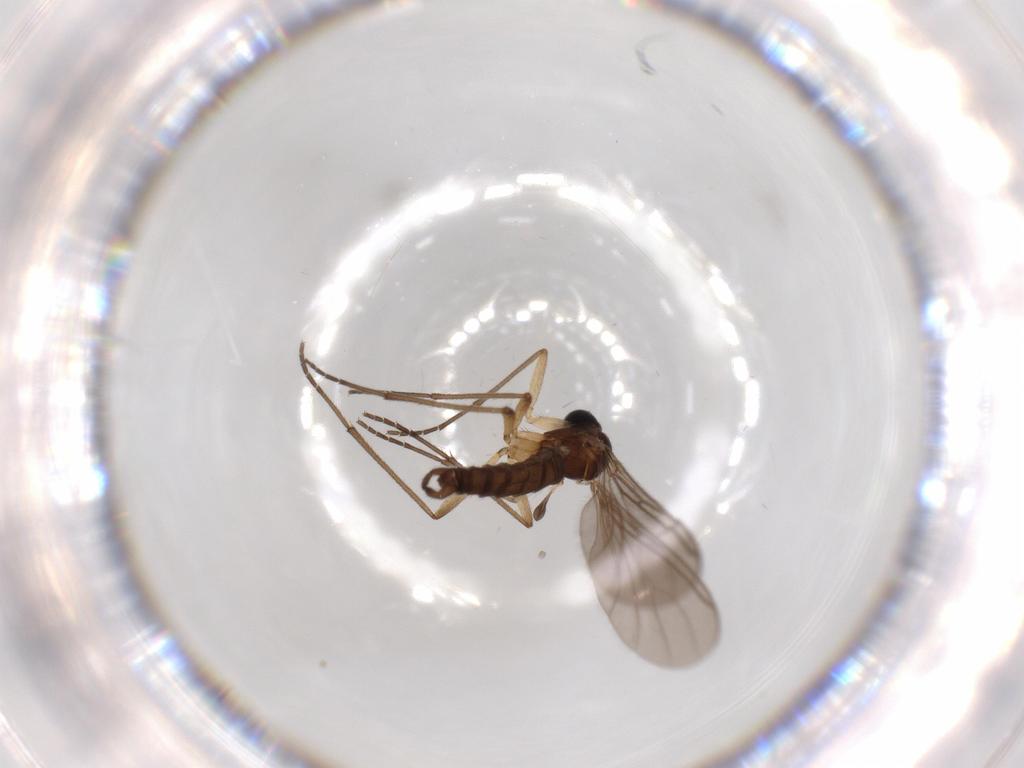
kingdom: Animalia
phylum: Arthropoda
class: Insecta
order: Diptera
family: Sciaridae
